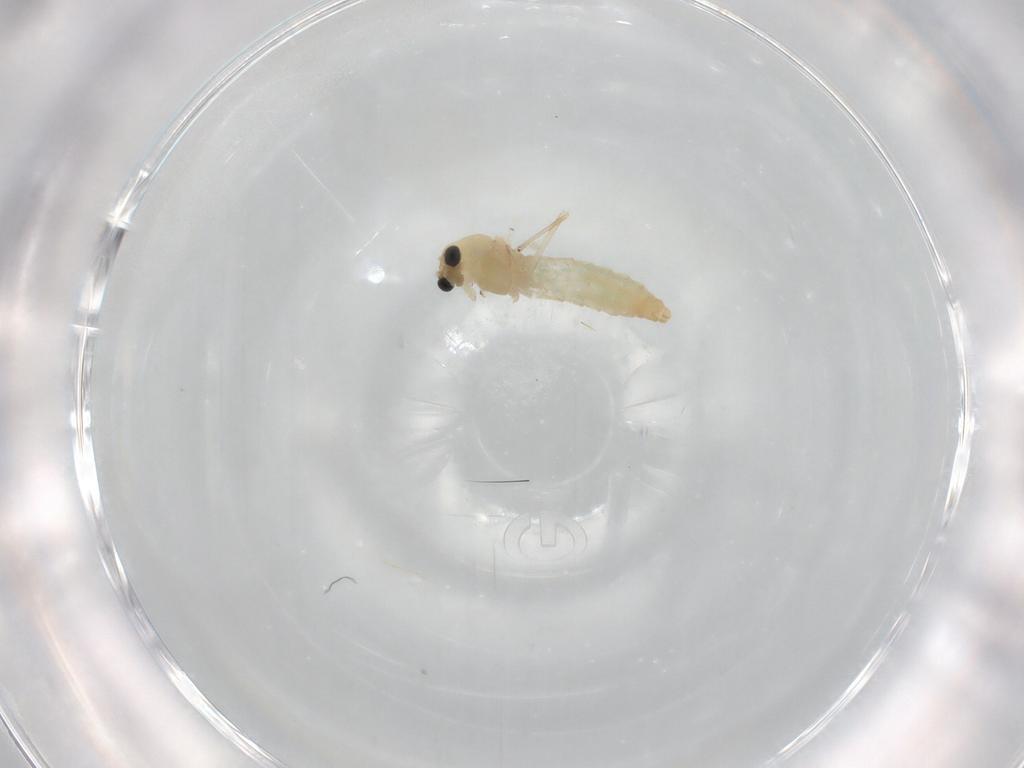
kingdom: Animalia
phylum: Arthropoda
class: Insecta
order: Diptera
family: Chironomidae
